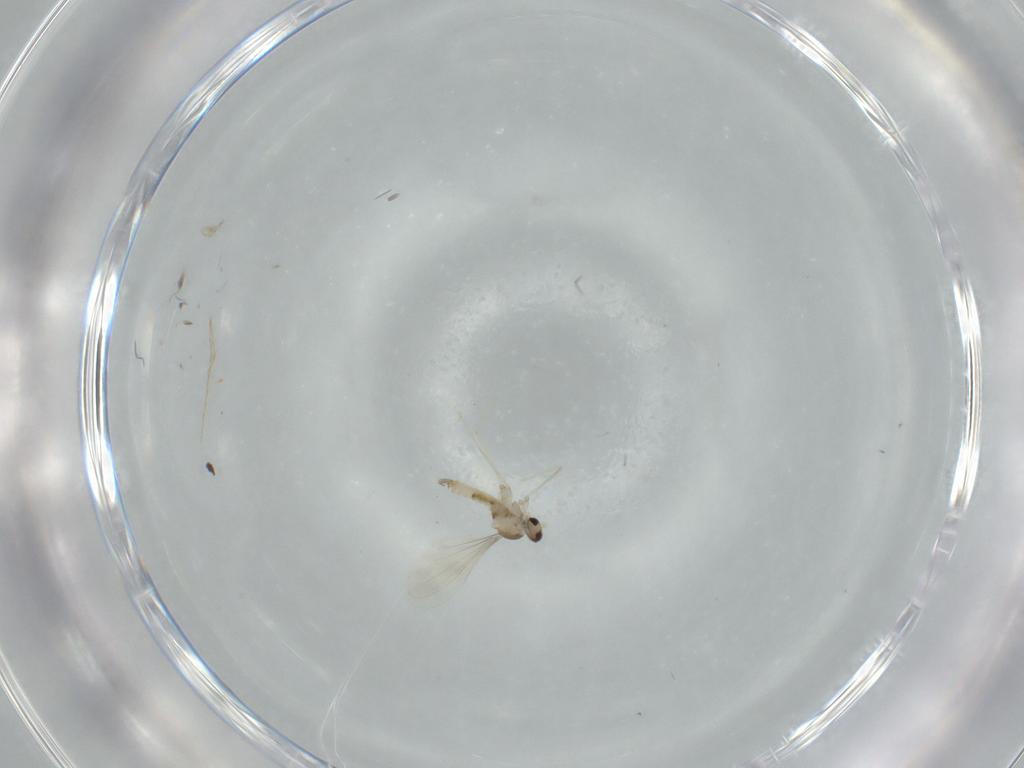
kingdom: Animalia
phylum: Arthropoda
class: Insecta
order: Diptera
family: Cecidomyiidae
